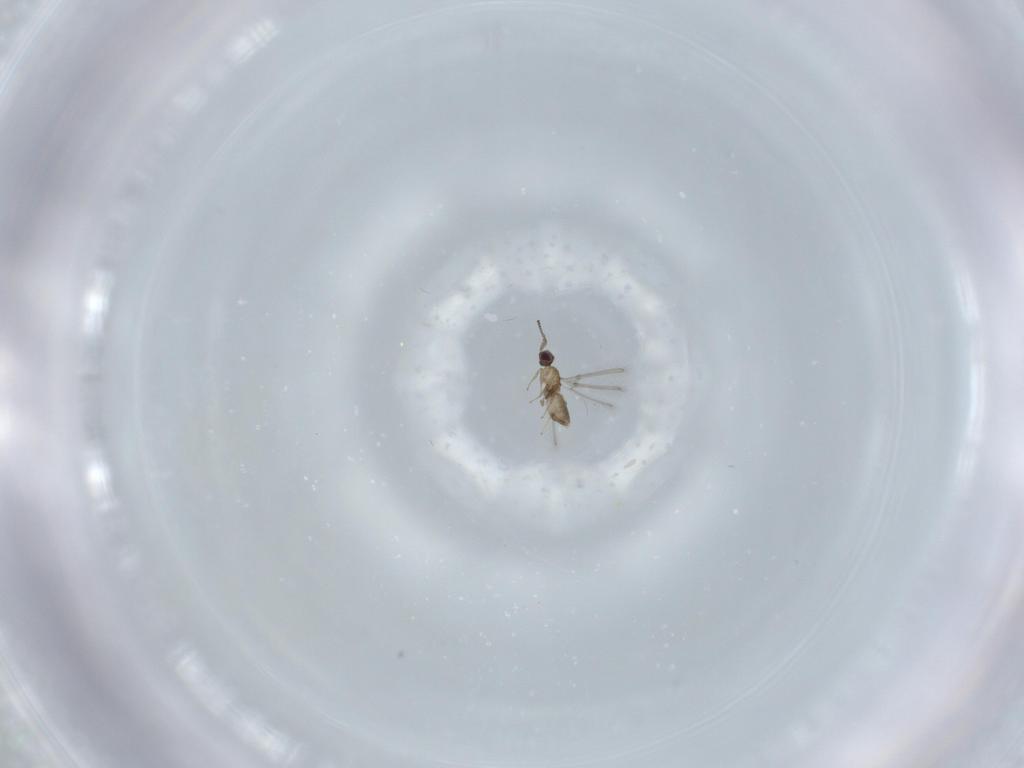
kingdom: Animalia
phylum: Arthropoda
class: Insecta
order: Hymenoptera
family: Mymaridae
